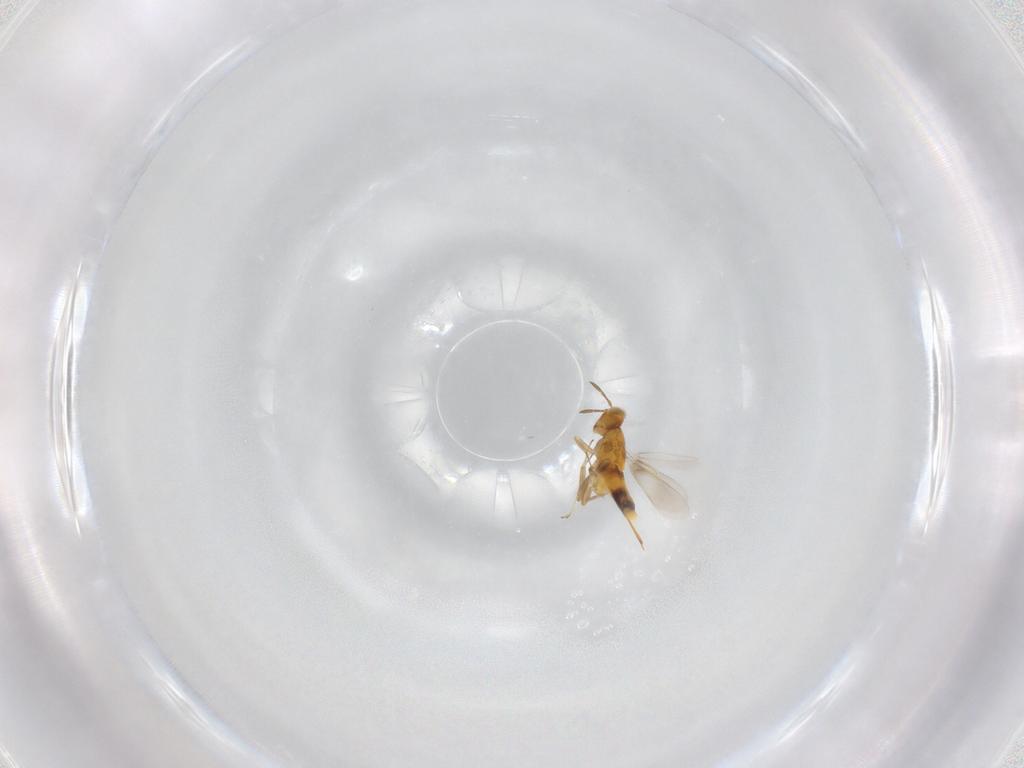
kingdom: Animalia
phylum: Arthropoda
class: Insecta
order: Hymenoptera
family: Aphelinidae
